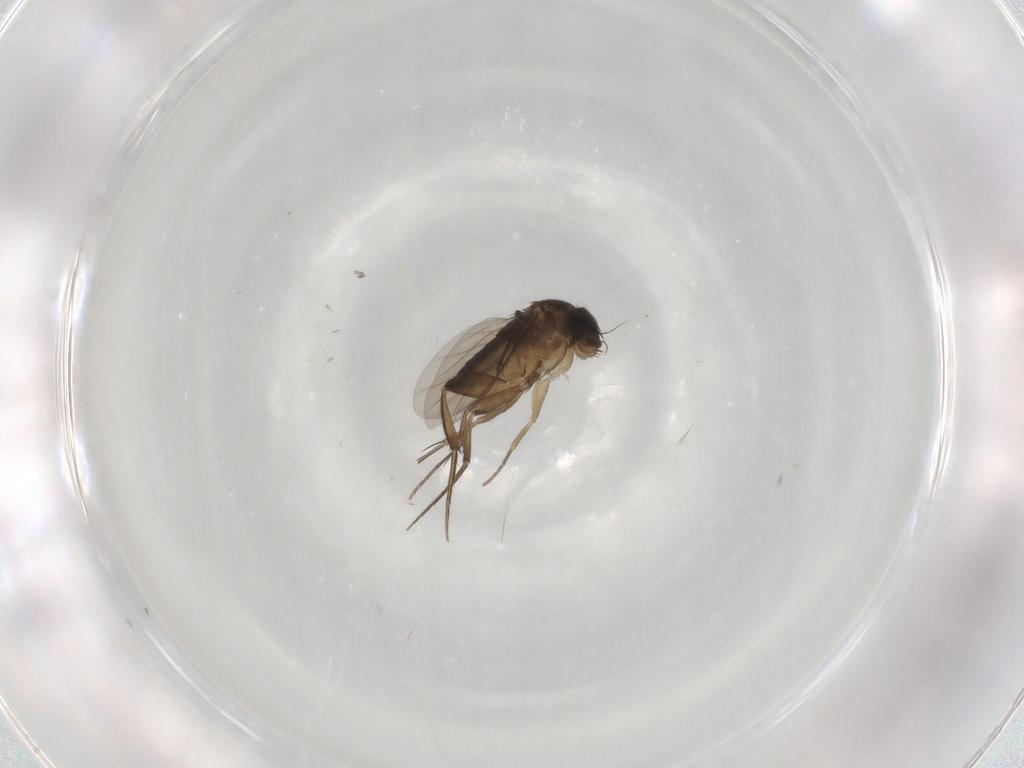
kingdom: Animalia
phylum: Arthropoda
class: Insecta
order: Diptera
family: Phoridae
